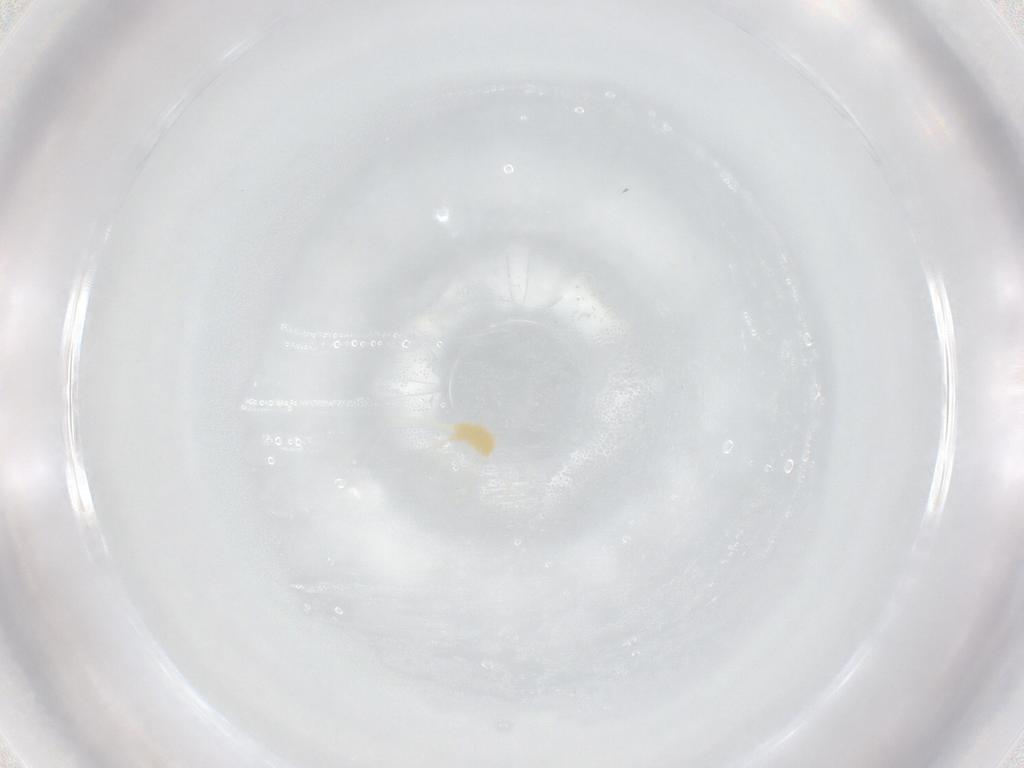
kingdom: Animalia
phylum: Arthropoda
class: Arachnida
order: Trombidiformes
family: Tetranychidae
